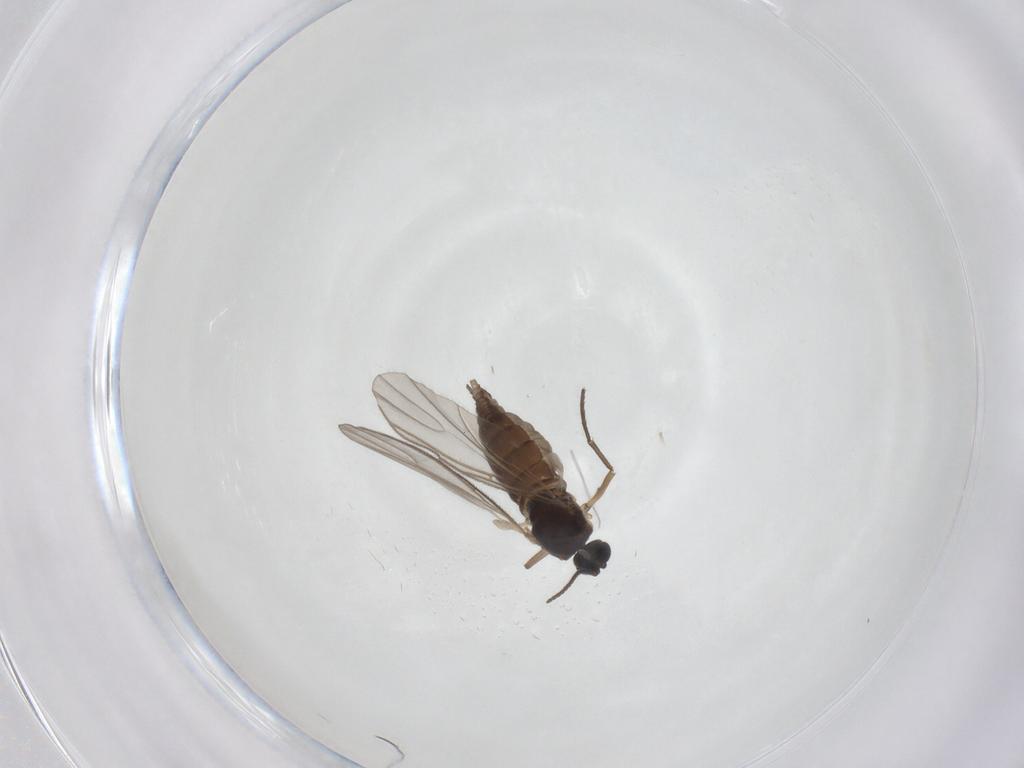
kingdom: Animalia
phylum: Arthropoda
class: Insecta
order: Diptera
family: Sciaridae
